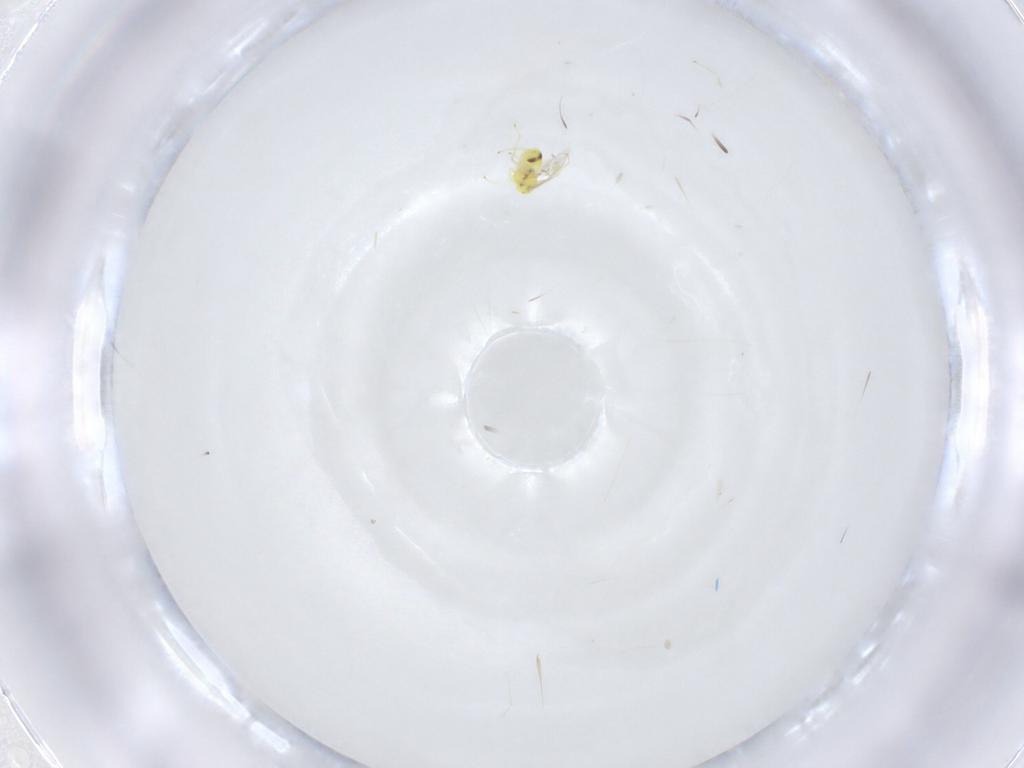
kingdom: Animalia
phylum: Arthropoda
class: Insecta
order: Hymenoptera
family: Eulophidae
